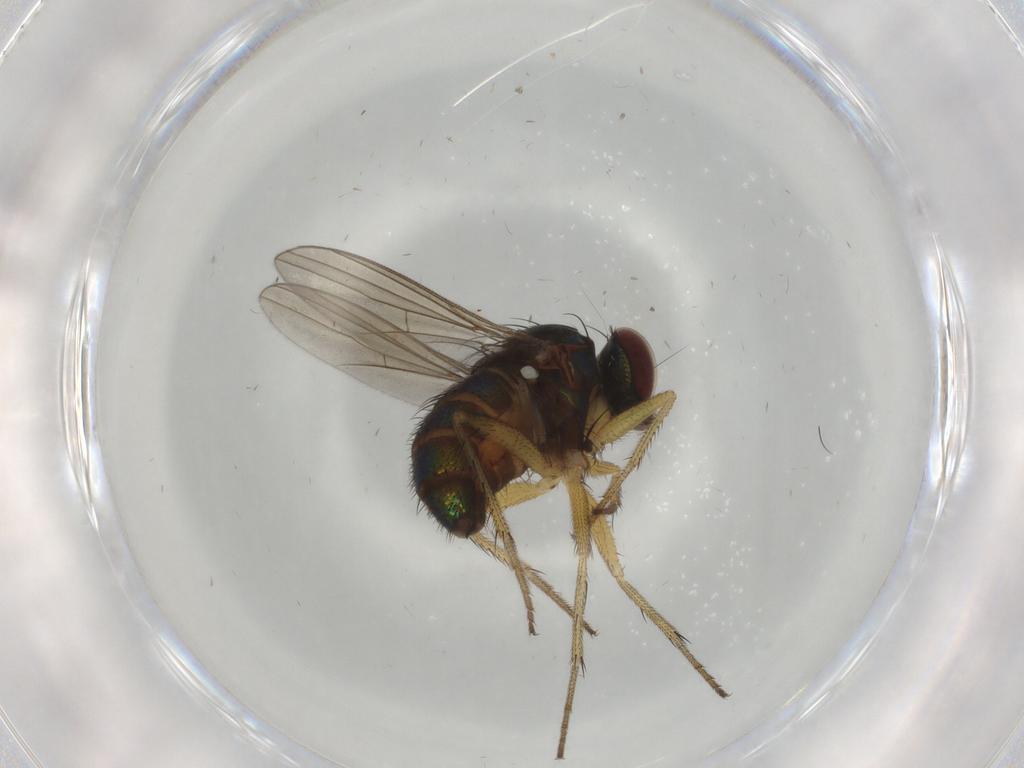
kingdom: Animalia
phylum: Arthropoda
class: Insecta
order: Diptera
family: Dolichopodidae
